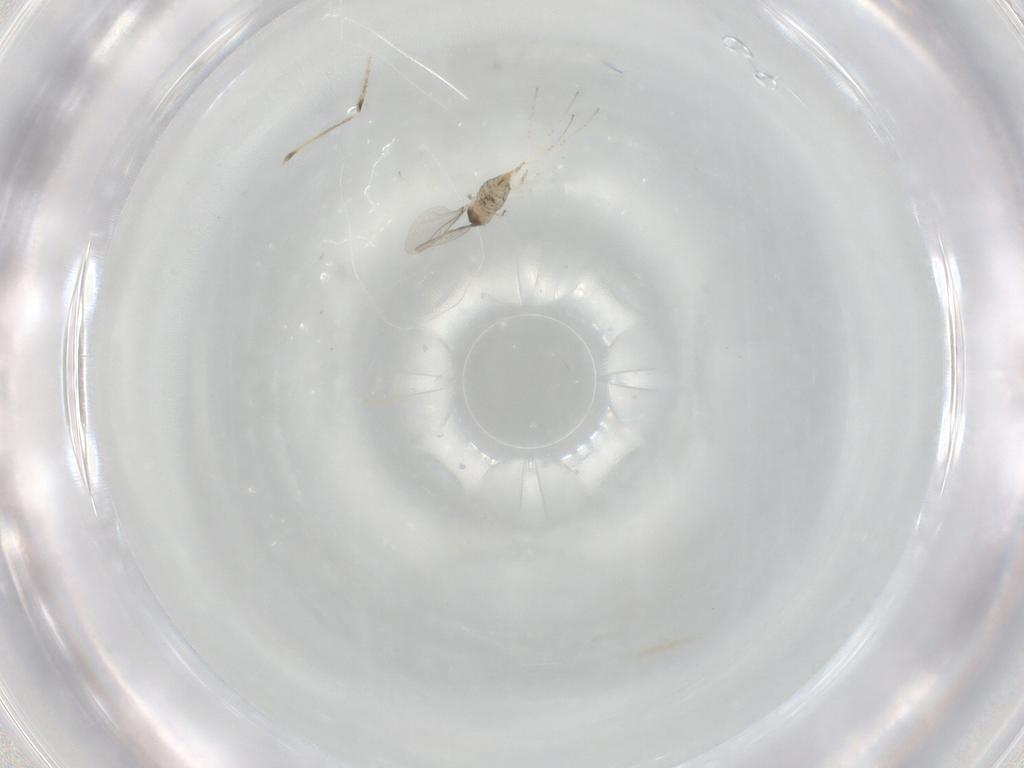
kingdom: Animalia
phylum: Arthropoda
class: Insecta
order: Diptera
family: Cecidomyiidae
